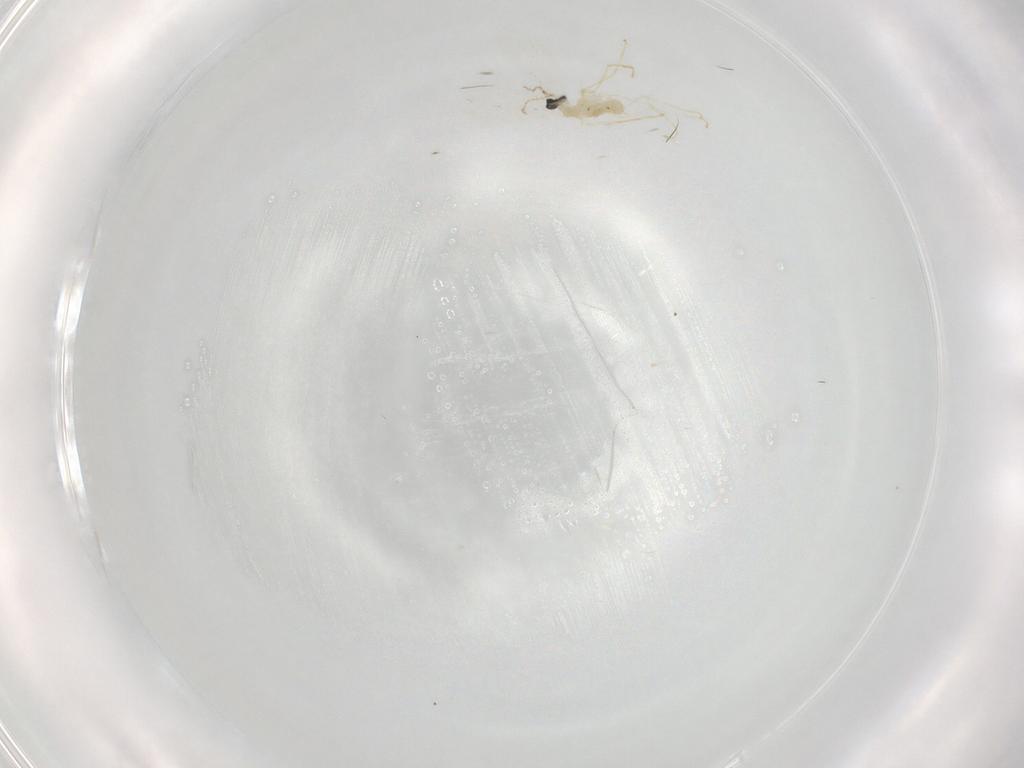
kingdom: Animalia
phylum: Arthropoda
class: Insecta
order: Diptera
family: Cecidomyiidae
